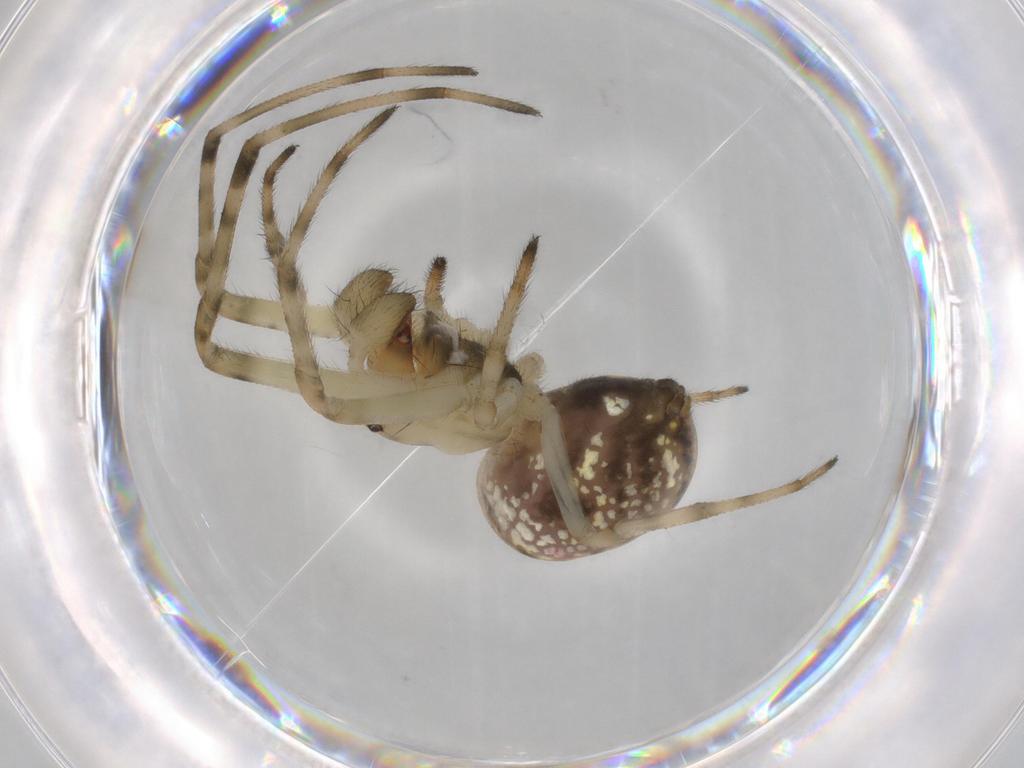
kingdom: Animalia
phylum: Arthropoda
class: Arachnida
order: Araneae
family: Tetragnathidae
